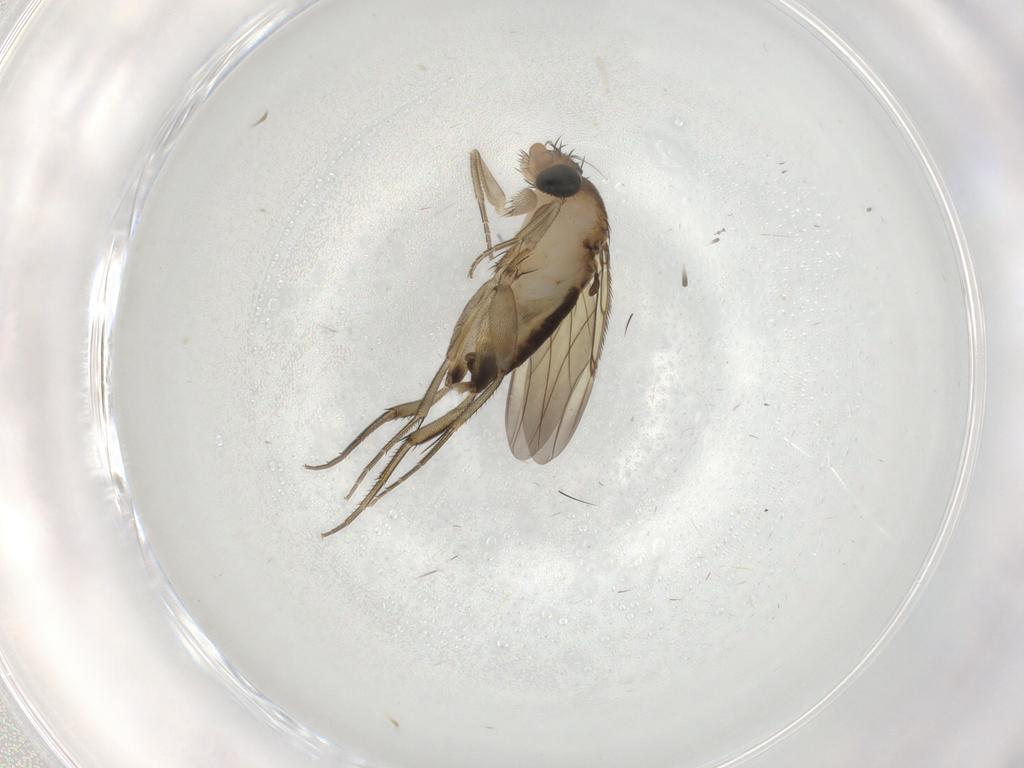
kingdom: Animalia
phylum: Arthropoda
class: Insecta
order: Diptera
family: Phoridae
